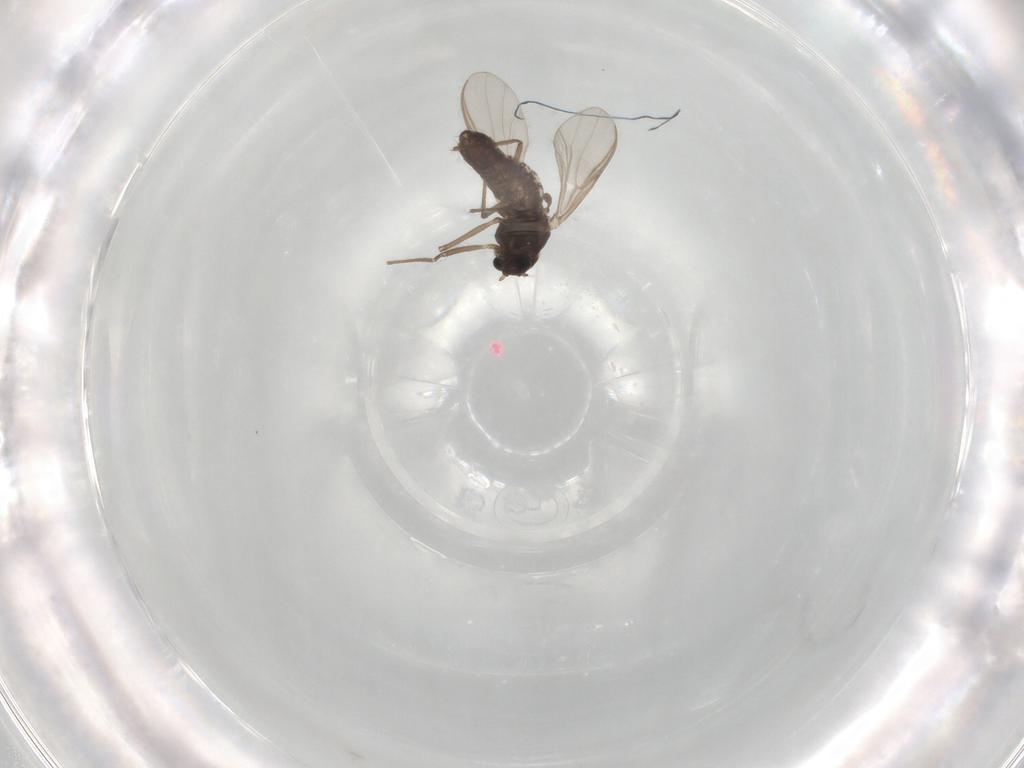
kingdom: Animalia
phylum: Arthropoda
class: Insecta
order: Diptera
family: Chironomidae
